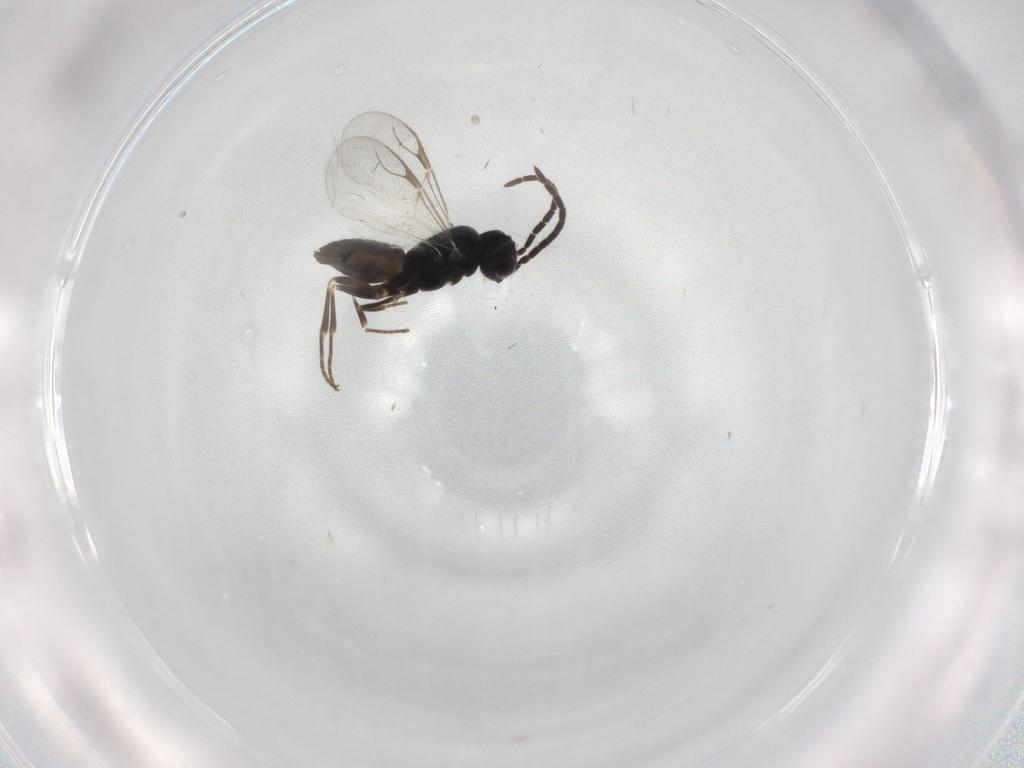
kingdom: Animalia
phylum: Arthropoda
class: Insecta
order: Hymenoptera
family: Dryinidae
